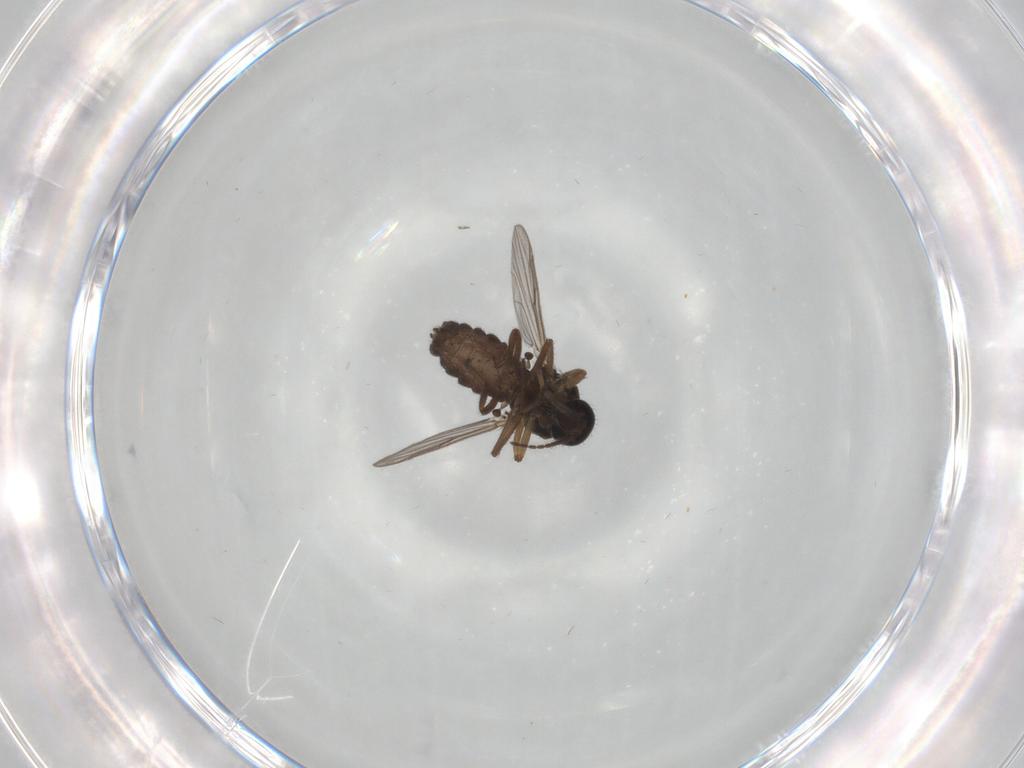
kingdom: Animalia
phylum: Arthropoda
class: Insecta
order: Diptera
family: Ceratopogonidae
